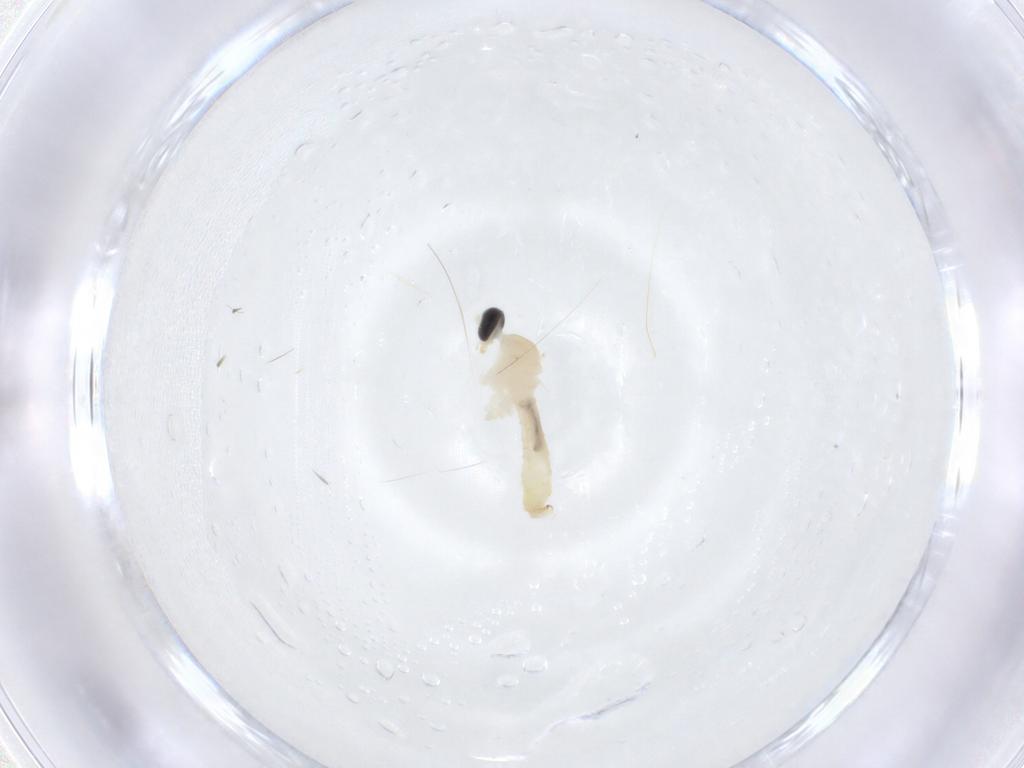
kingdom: Animalia
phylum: Arthropoda
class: Insecta
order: Diptera
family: Cecidomyiidae
